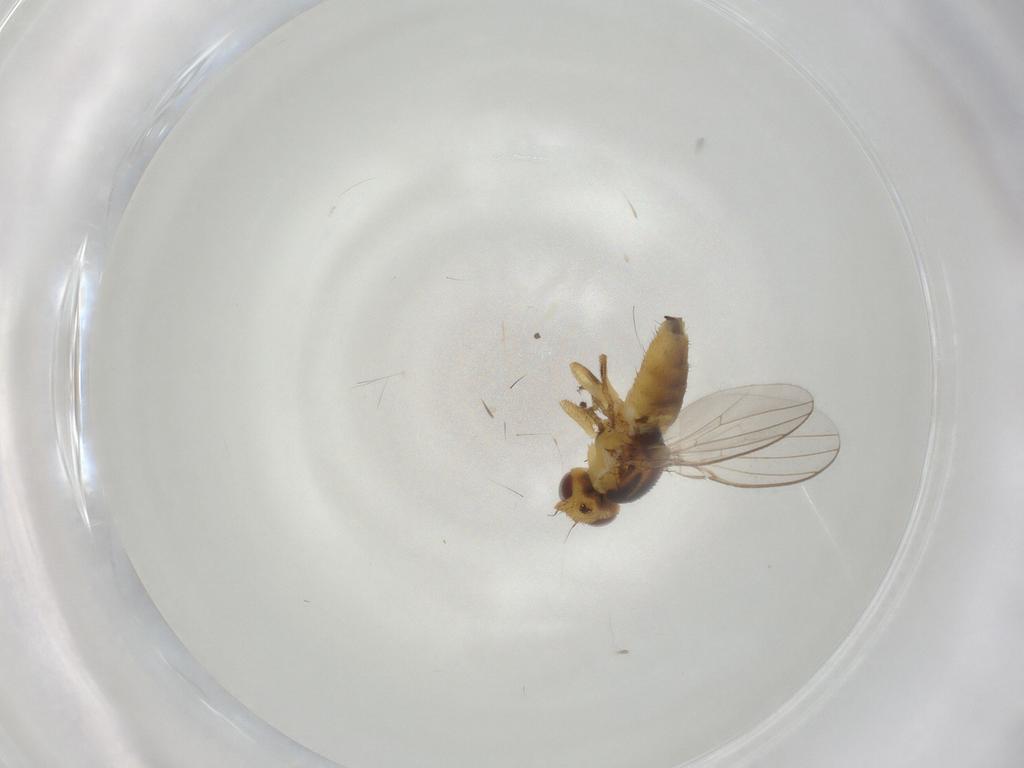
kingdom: Animalia
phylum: Arthropoda
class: Insecta
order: Diptera
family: Chloropidae
